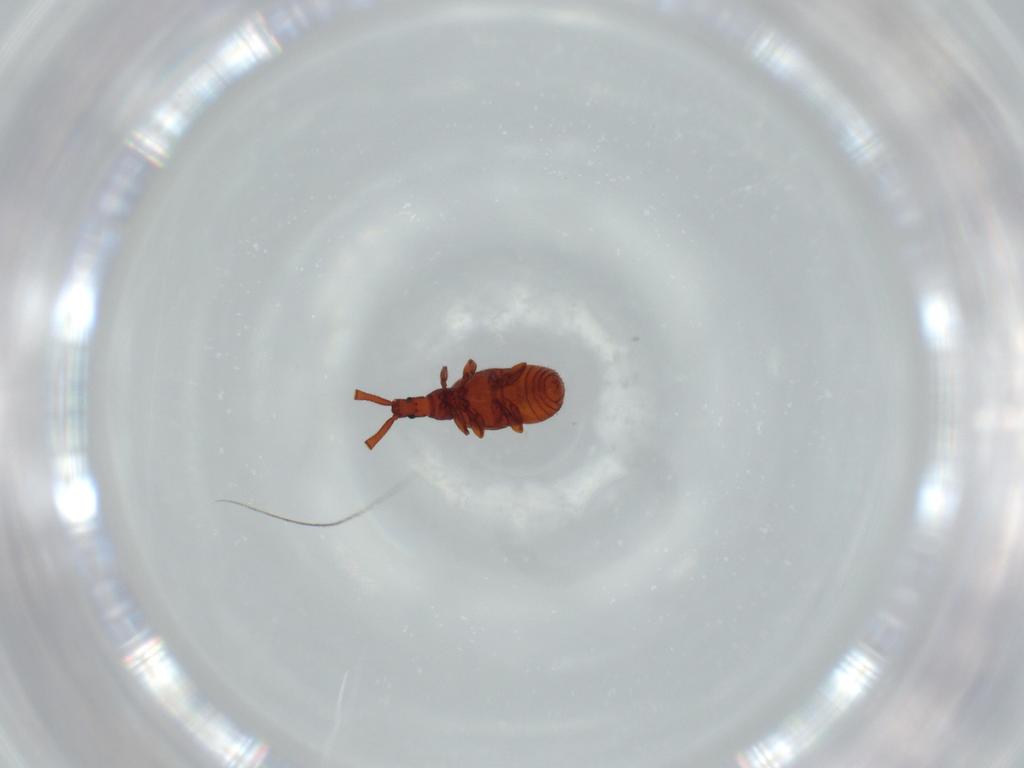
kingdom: Animalia
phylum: Arthropoda
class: Insecta
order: Coleoptera
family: Staphylinidae
